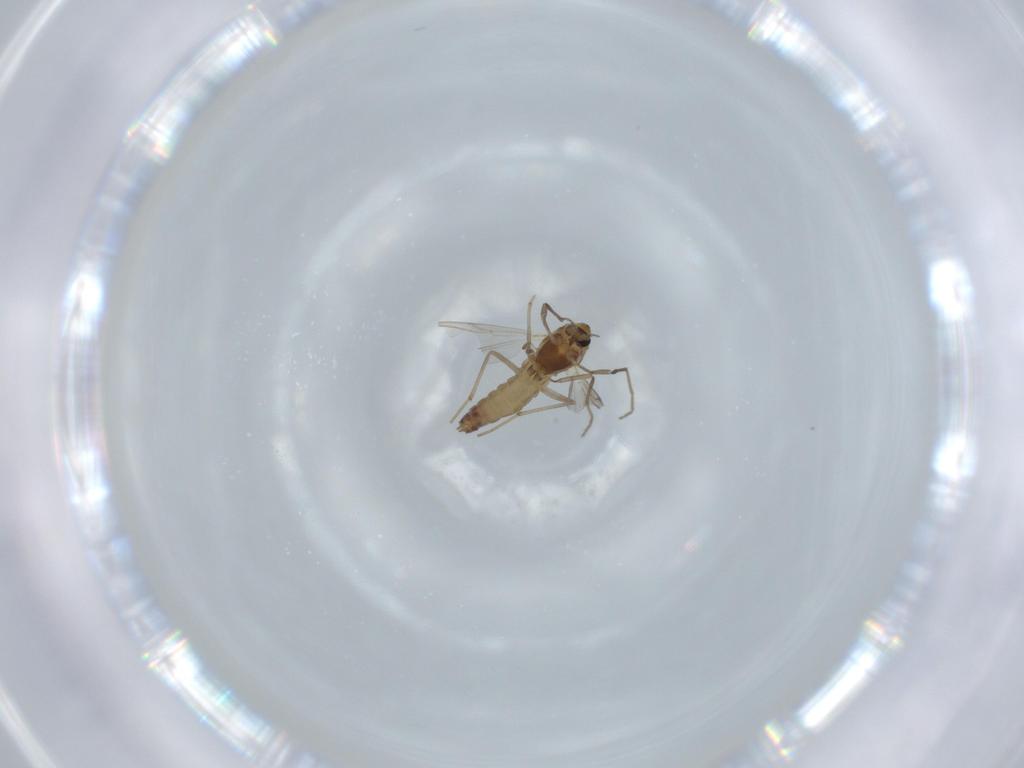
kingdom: Animalia
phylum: Arthropoda
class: Insecta
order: Diptera
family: Chironomidae
